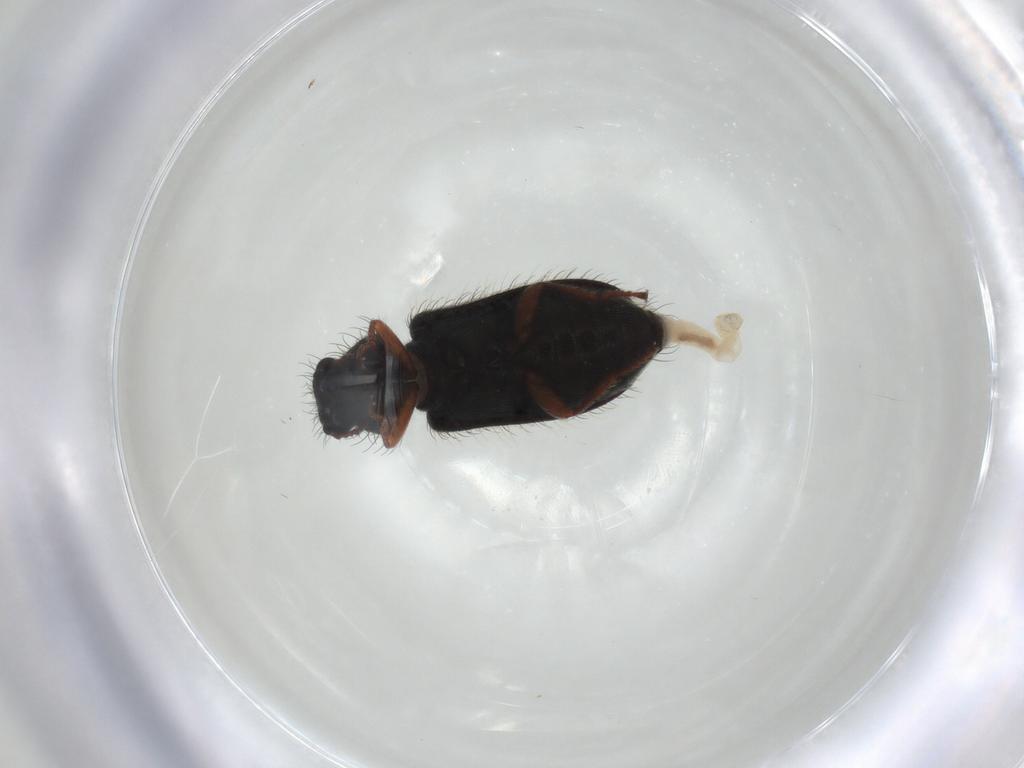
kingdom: Animalia
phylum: Arthropoda
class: Insecta
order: Coleoptera
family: Melyridae
